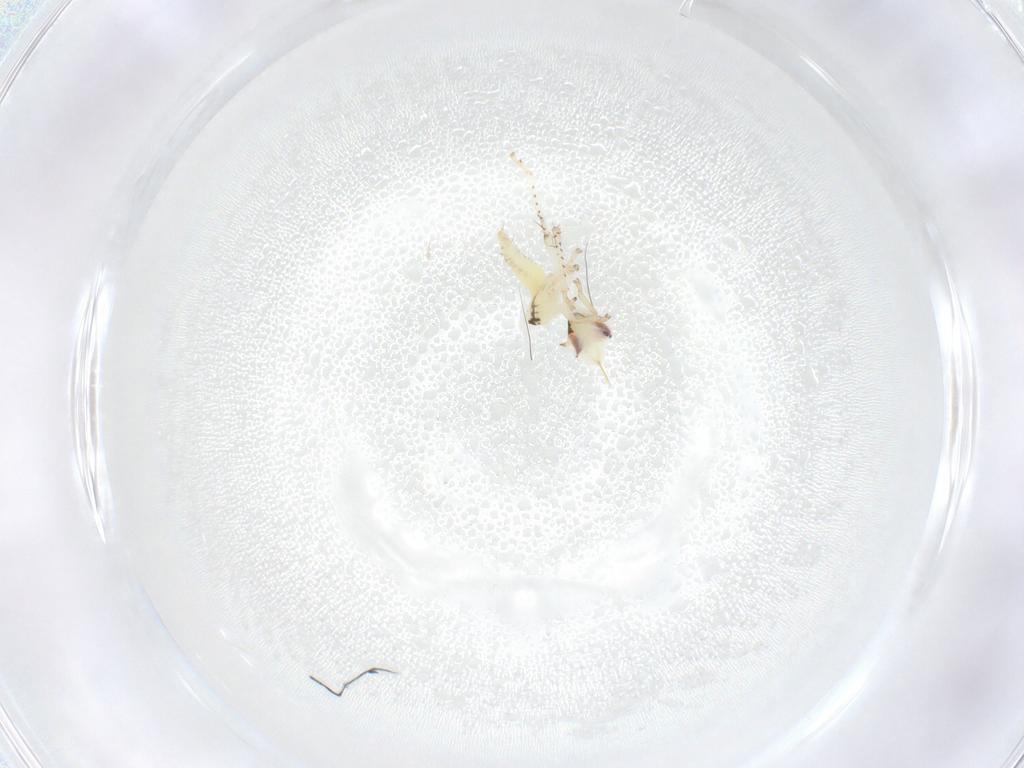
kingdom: Animalia
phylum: Arthropoda
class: Insecta
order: Hemiptera
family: Cicadellidae
